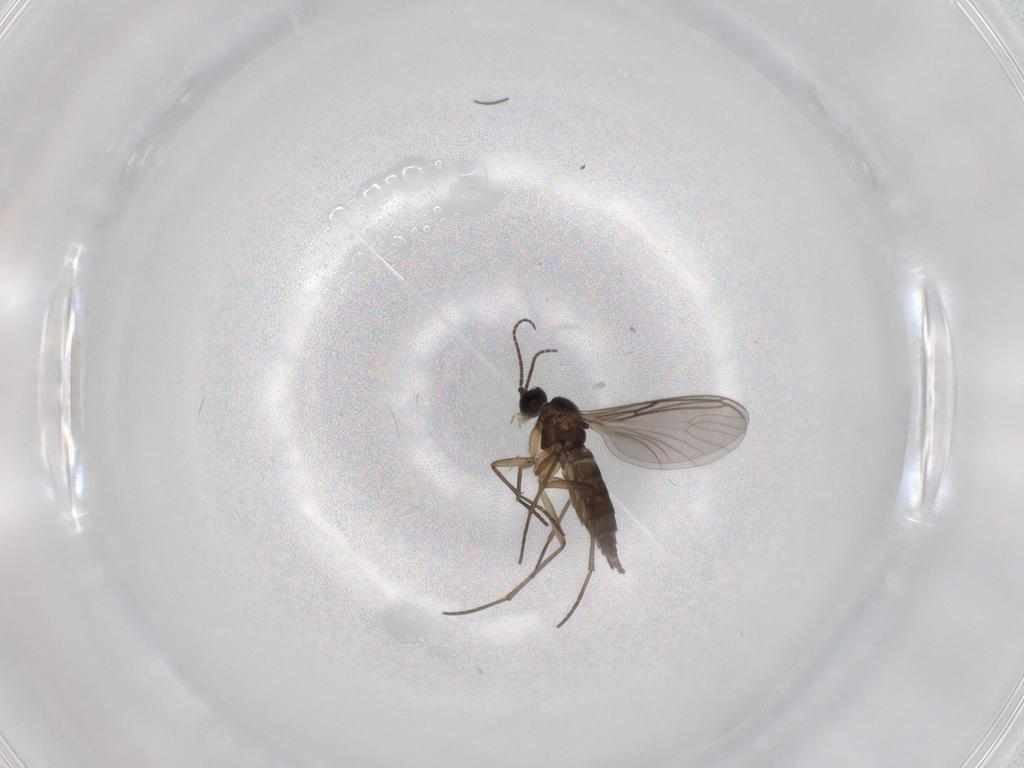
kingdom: Animalia
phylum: Arthropoda
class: Insecta
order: Diptera
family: Sciaridae
